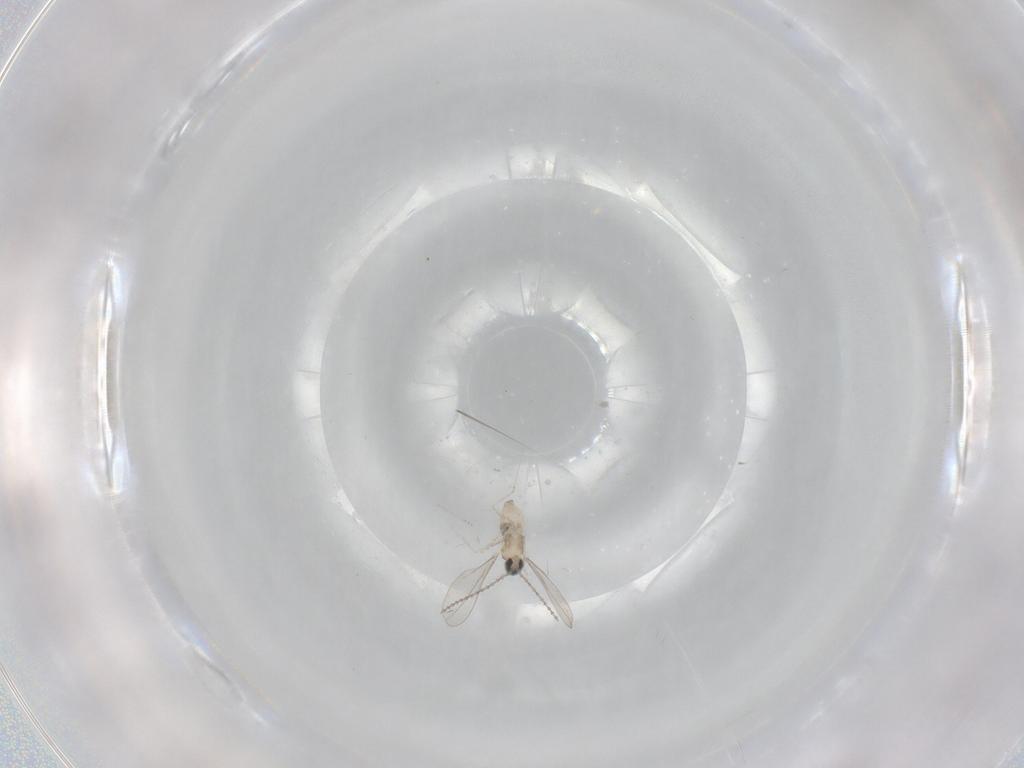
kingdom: Animalia
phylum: Arthropoda
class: Insecta
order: Diptera
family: Cecidomyiidae
